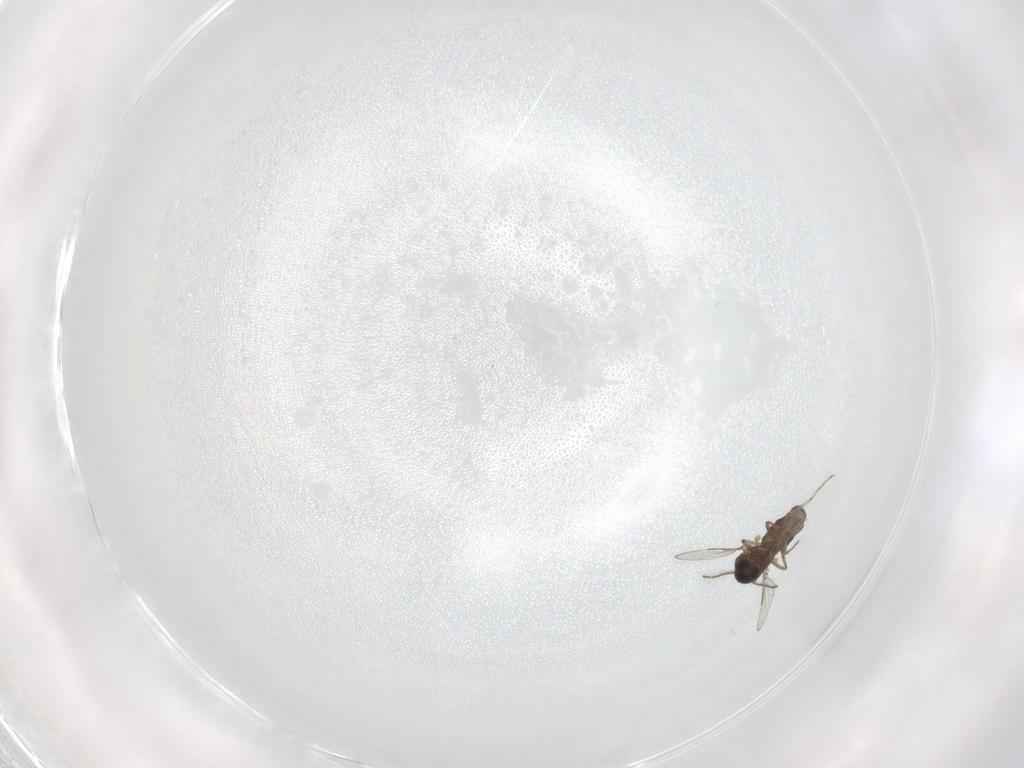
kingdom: Animalia
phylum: Arthropoda
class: Insecta
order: Diptera
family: Ceratopogonidae
